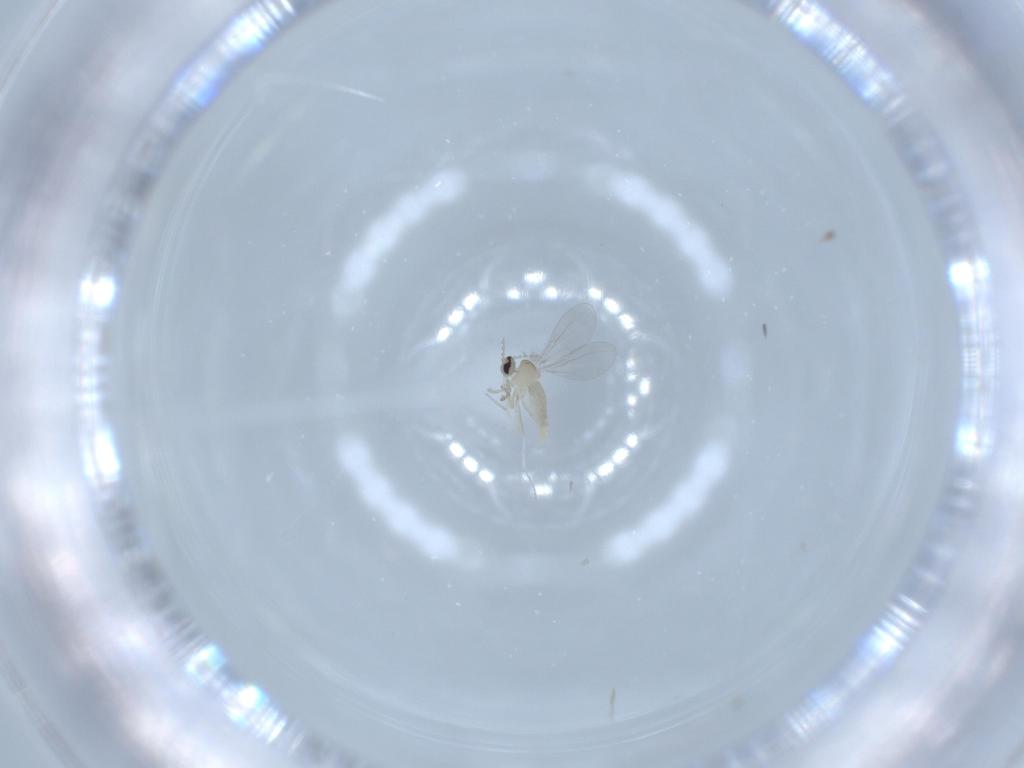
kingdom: Animalia
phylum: Arthropoda
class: Insecta
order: Diptera
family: Cecidomyiidae
